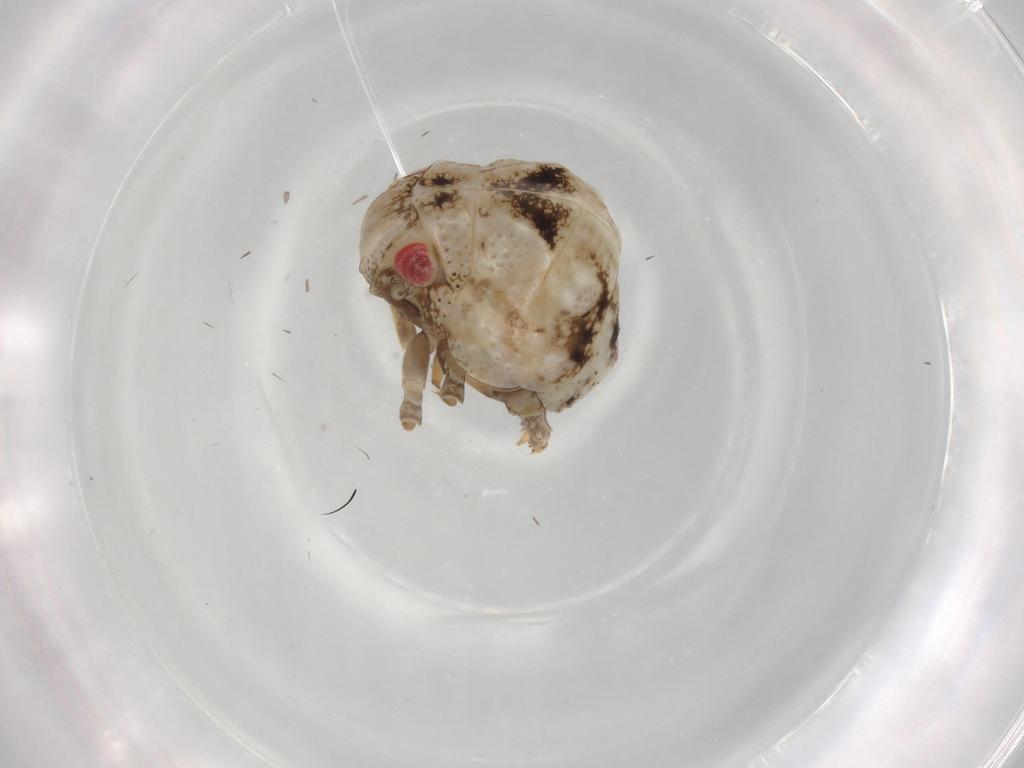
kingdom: Animalia
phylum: Arthropoda
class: Insecta
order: Hemiptera
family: Acanaloniidae
